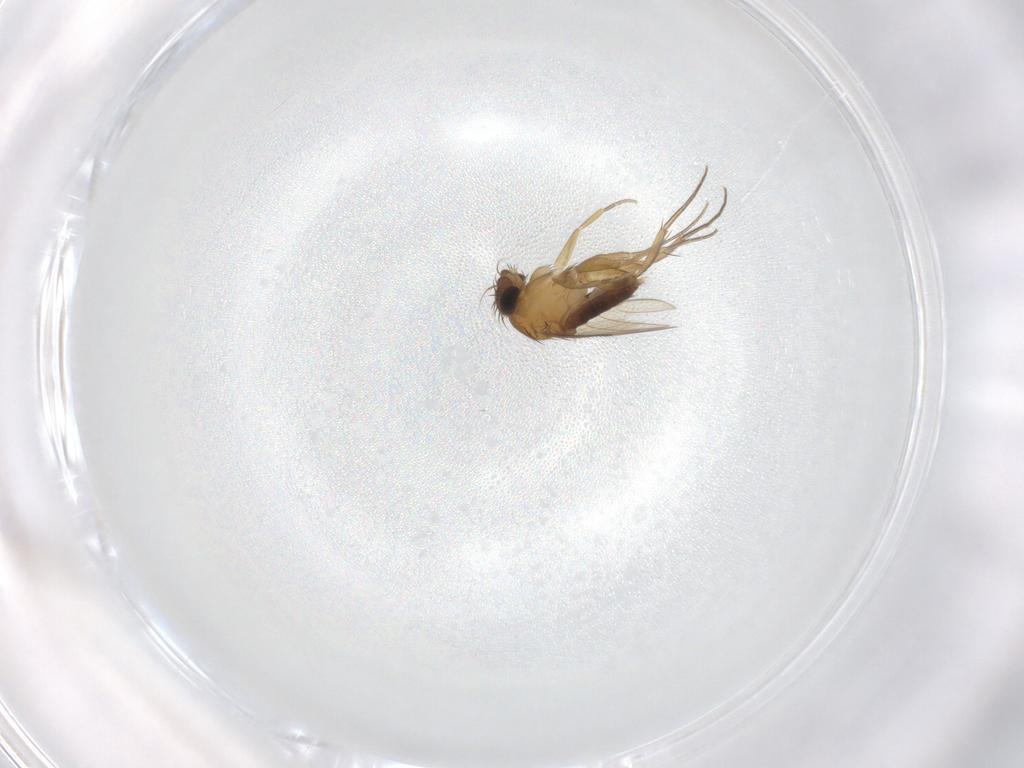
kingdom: Animalia
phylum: Arthropoda
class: Insecta
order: Diptera
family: Phoridae
